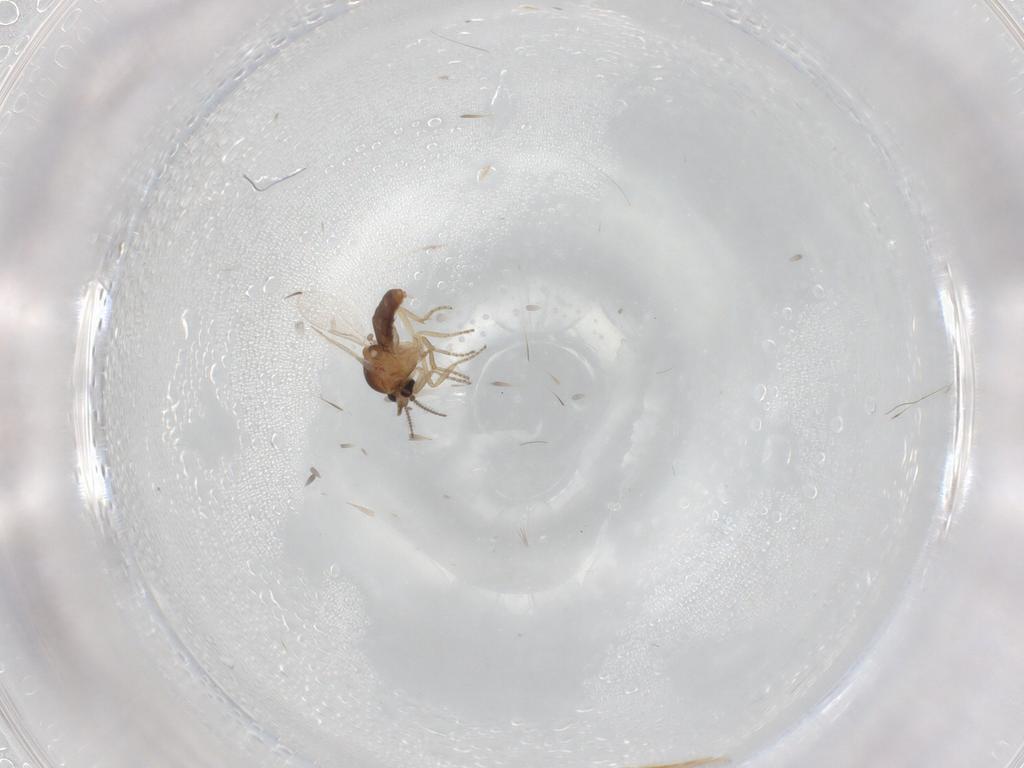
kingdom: Animalia
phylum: Arthropoda
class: Insecta
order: Diptera
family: Ceratopogonidae
